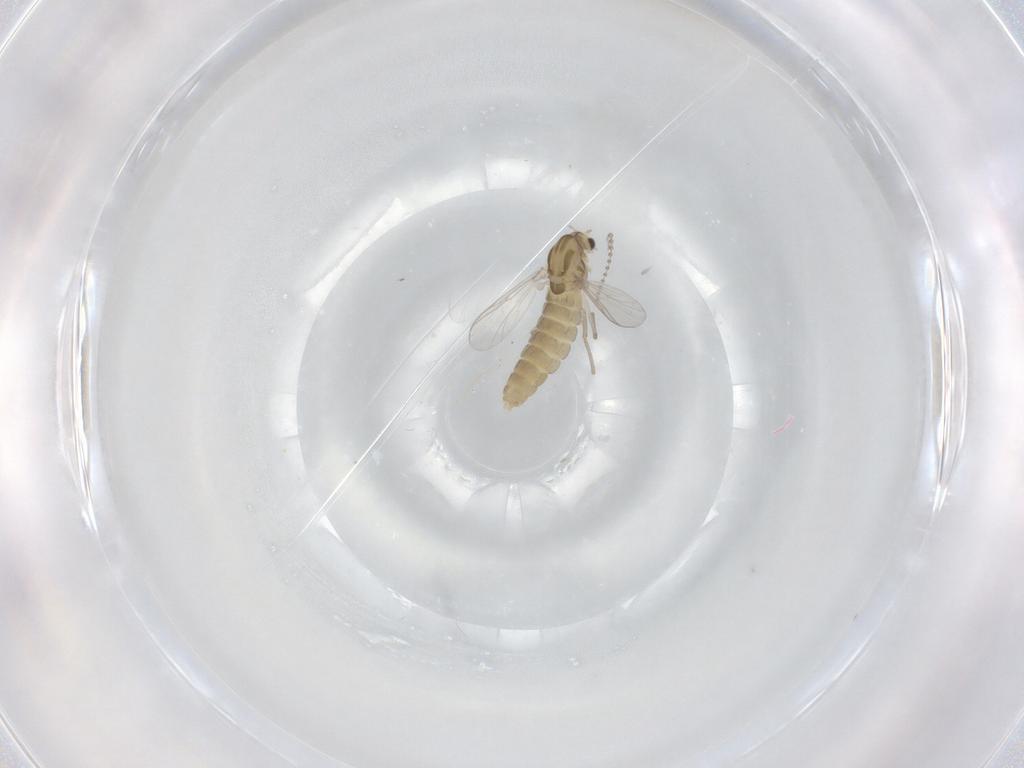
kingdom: Animalia
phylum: Arthropoda
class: Insecta
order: Diptera
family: Chironomidae
